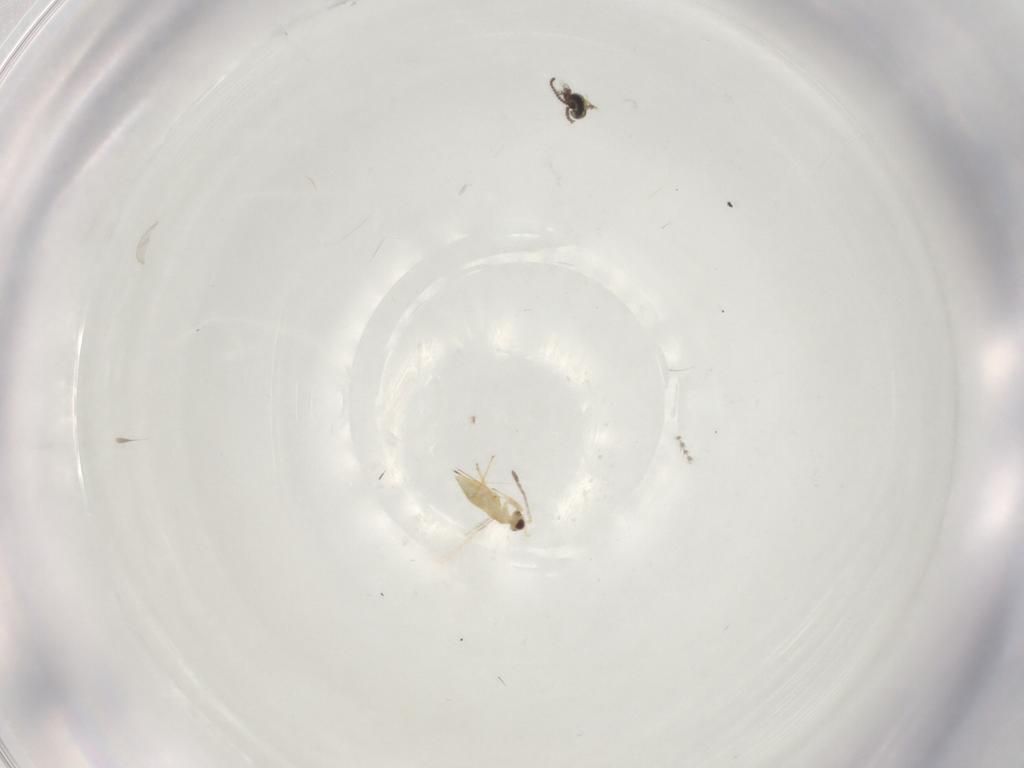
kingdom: Animalia
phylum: Arthropoda
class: Insecta
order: Hymenoptera
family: Mymaridae
